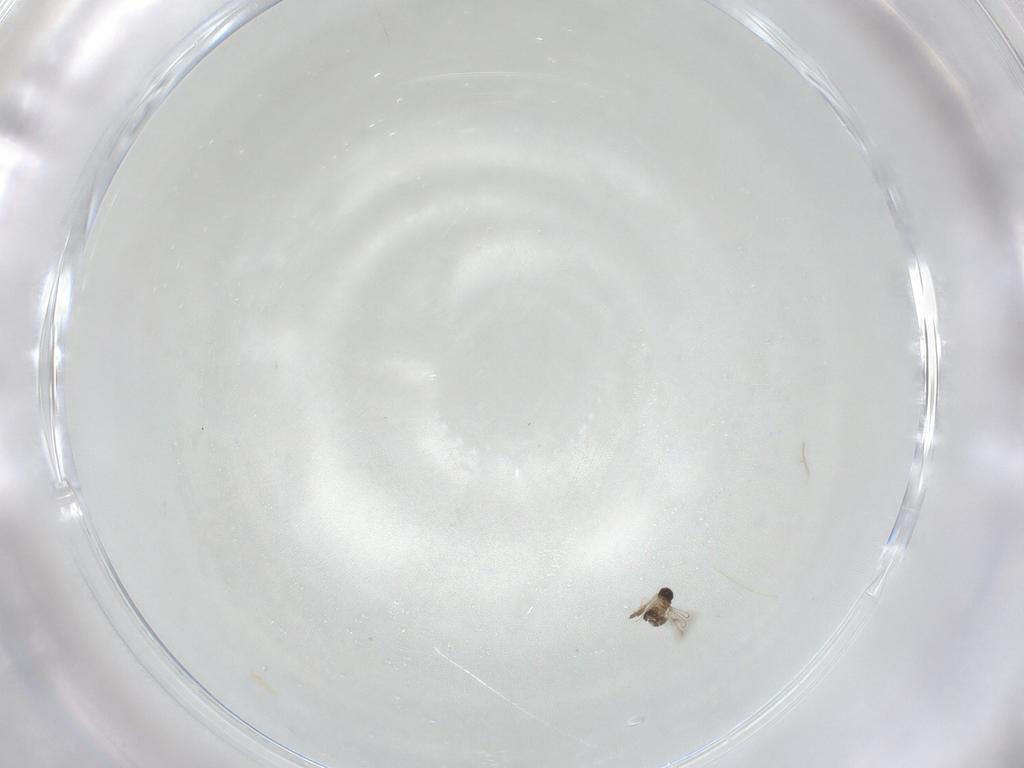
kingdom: Animalia
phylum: Arthropoda
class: Insecta
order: Hymenoptera
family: Mymaridae
